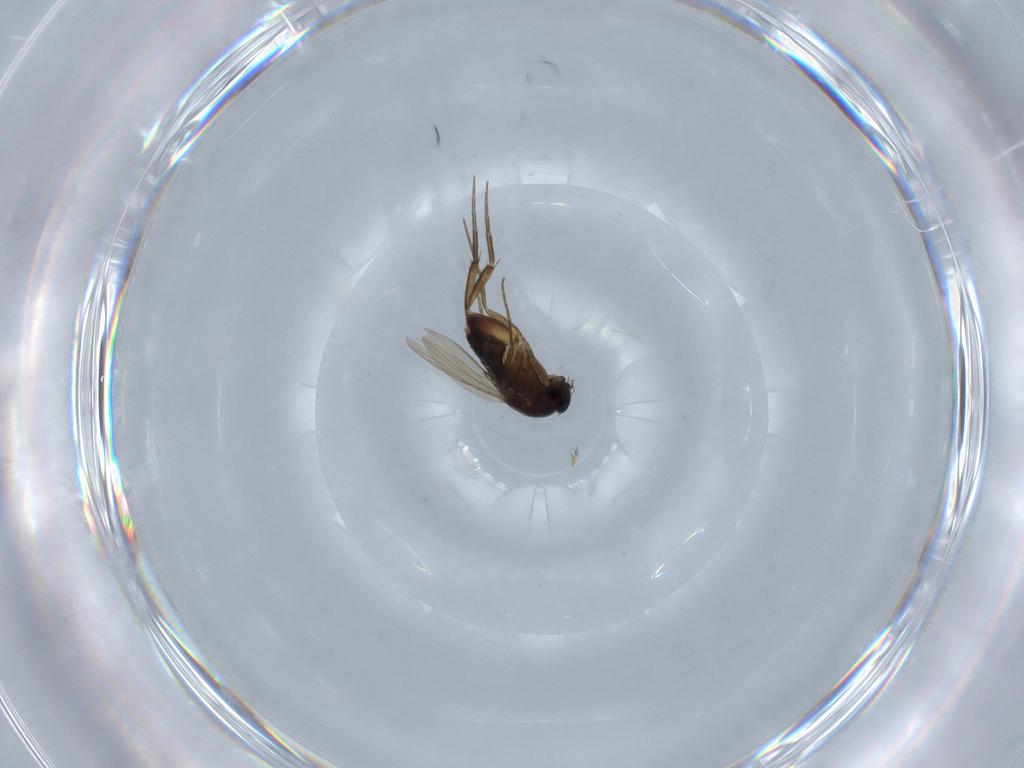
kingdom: Animalia
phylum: Arthropoda
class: Insecta
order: Diptera
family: Phoridae
